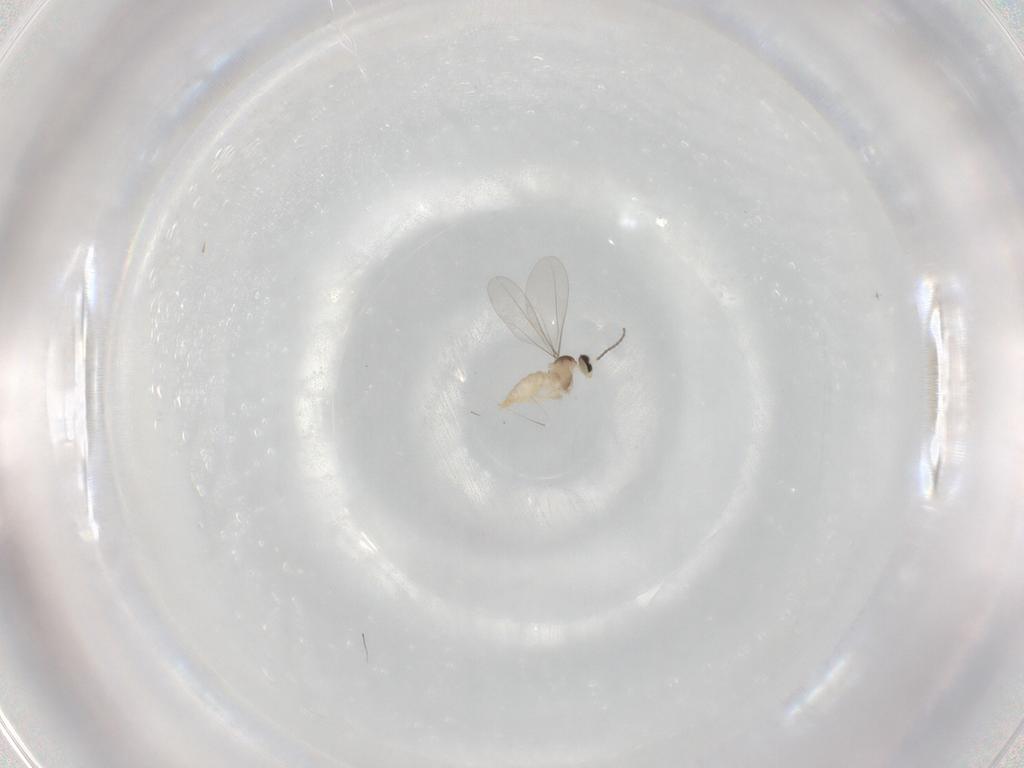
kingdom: Animalia
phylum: Arthropoda
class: Insecta
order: Diptera
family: Cecidomyiidae
